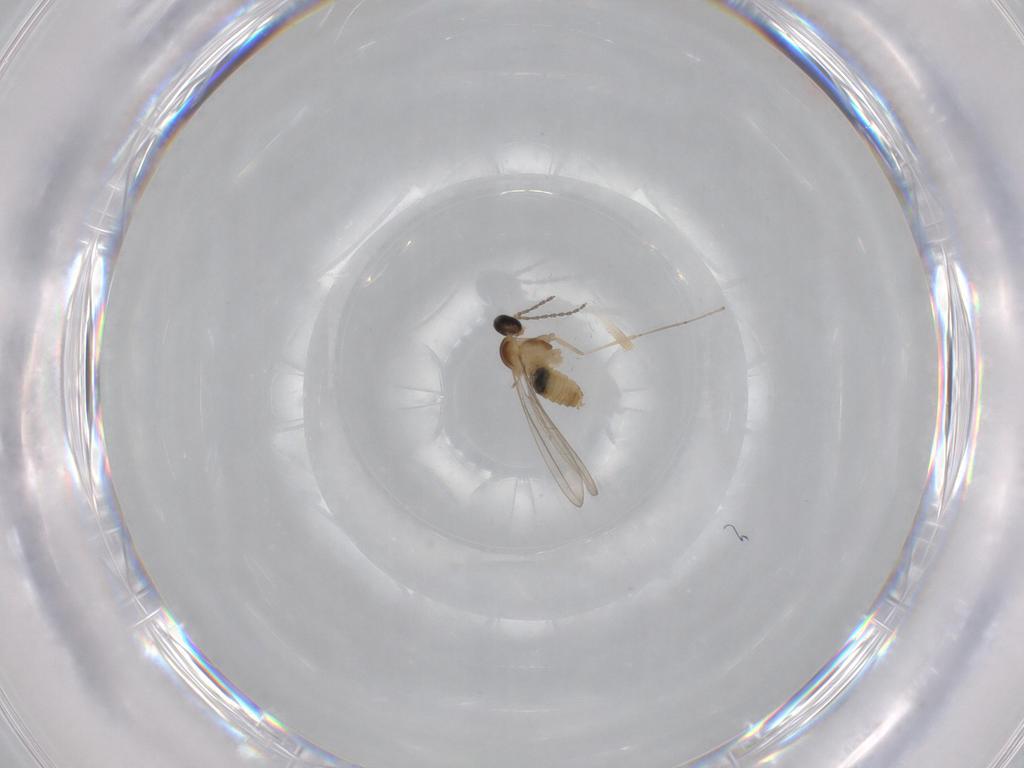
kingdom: Animalia
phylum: Arthropoda
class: Insecta
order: Diptera
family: Cecidomyiidae
